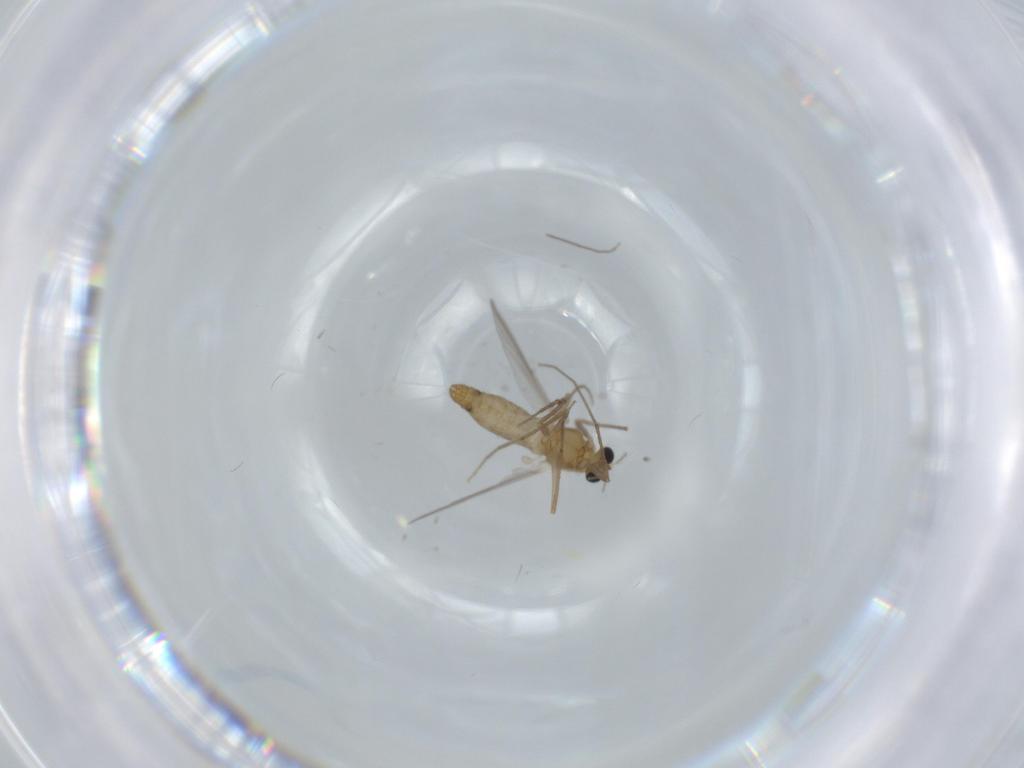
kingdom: Animalia
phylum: Arthropoda
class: Insecta
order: Diptera
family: Chironomidae
